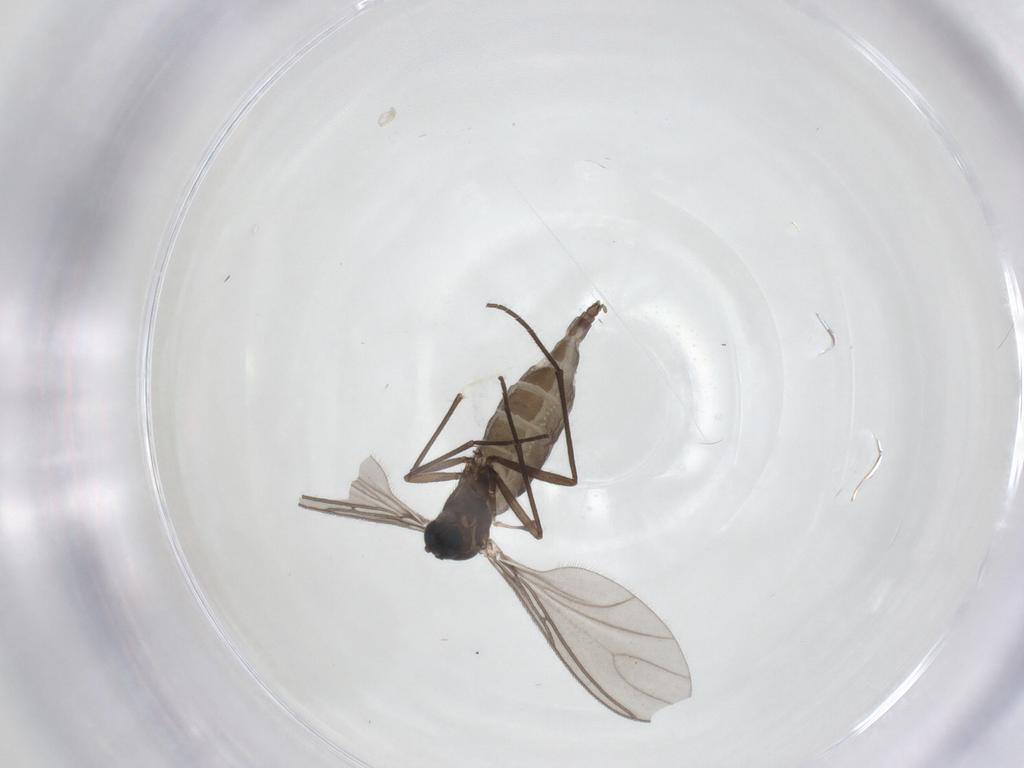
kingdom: Animalia
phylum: Arthropoda
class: Insecta
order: Diptera
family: Sciaridae
